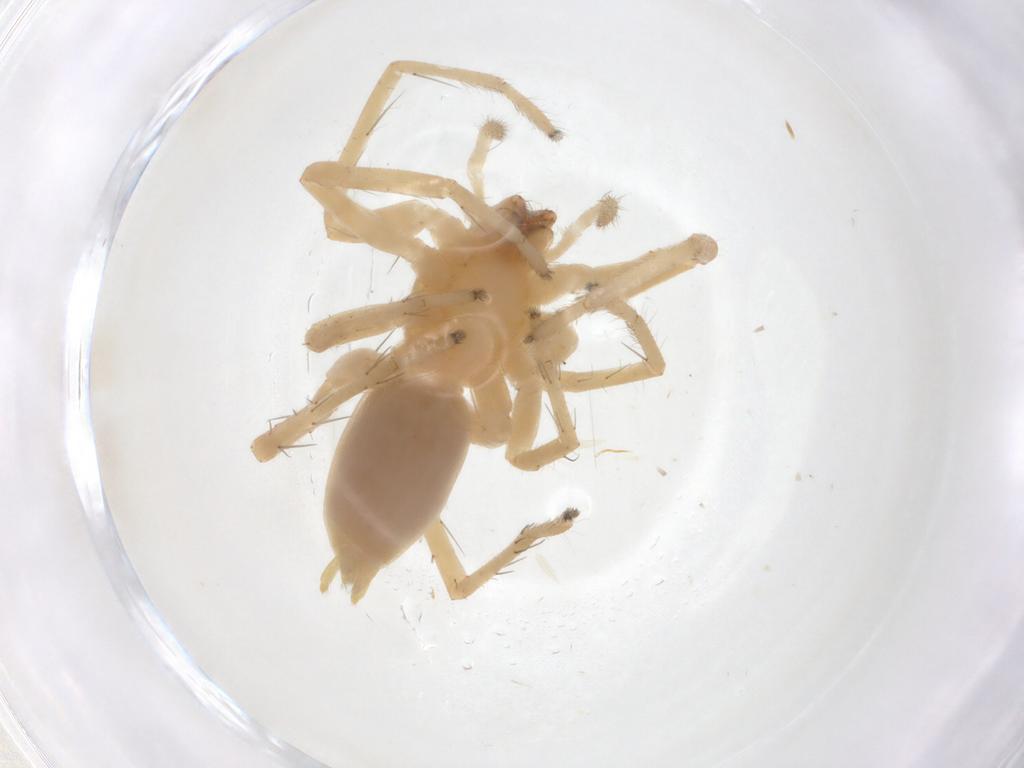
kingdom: Animalia
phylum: Arthropoda
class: Arachnida
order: Araneae
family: Anyphaenidae
